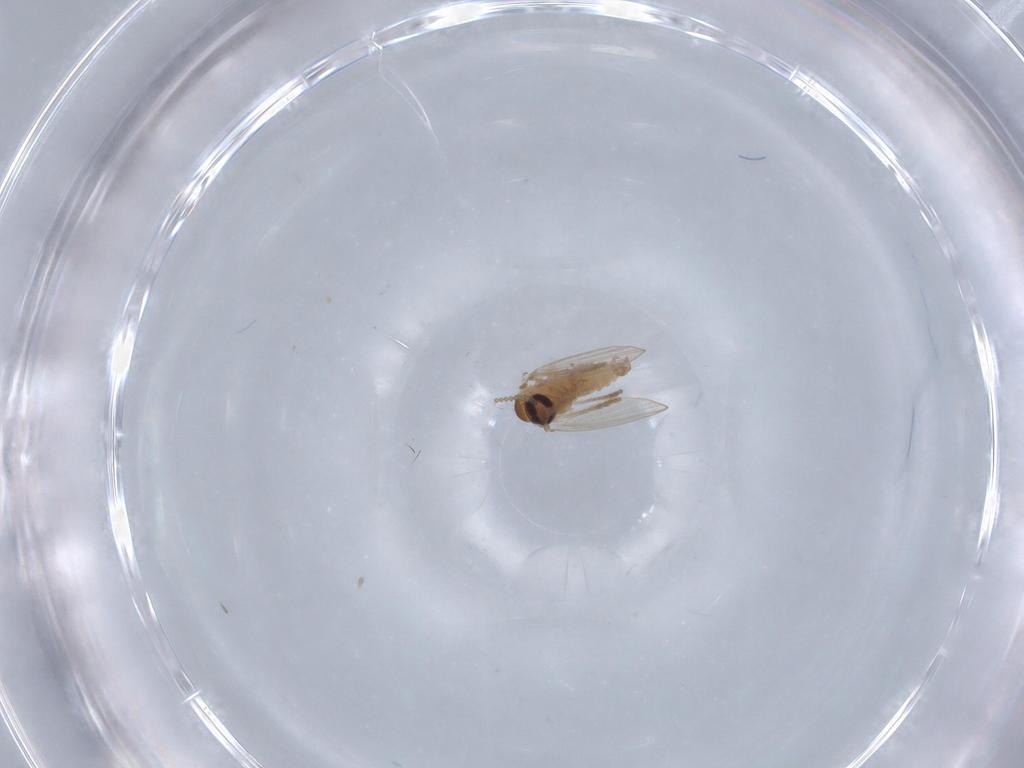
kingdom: Animalia
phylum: Arthropoda
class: Insecta
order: Diptera
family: Psychodidae
